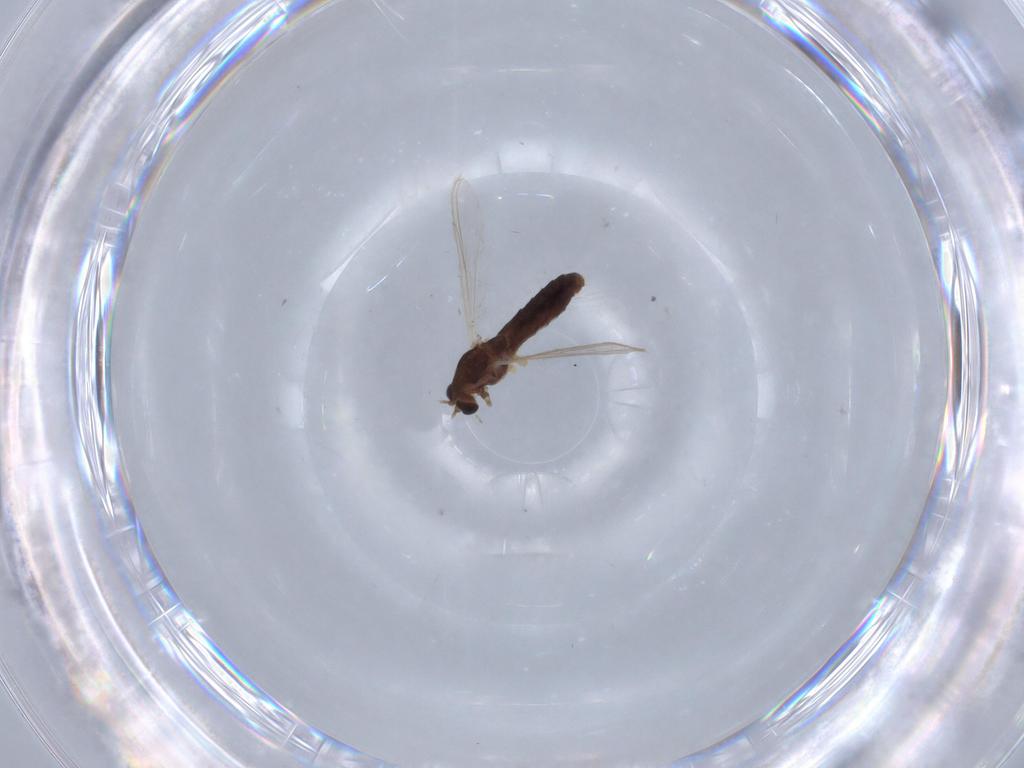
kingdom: Animalia
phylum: Arthropoda
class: Insecta
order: Diptera
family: Chironomidae
